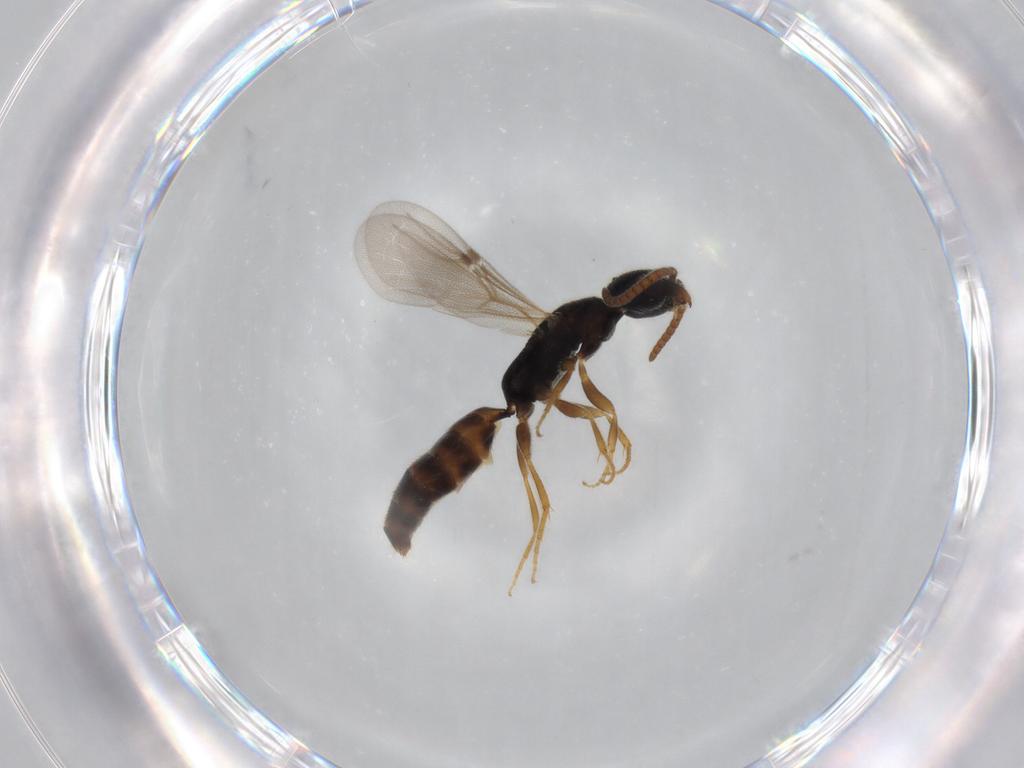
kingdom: Animalia
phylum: Arthropoda
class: Insecta
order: Hymenoptera
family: Bethylidae
